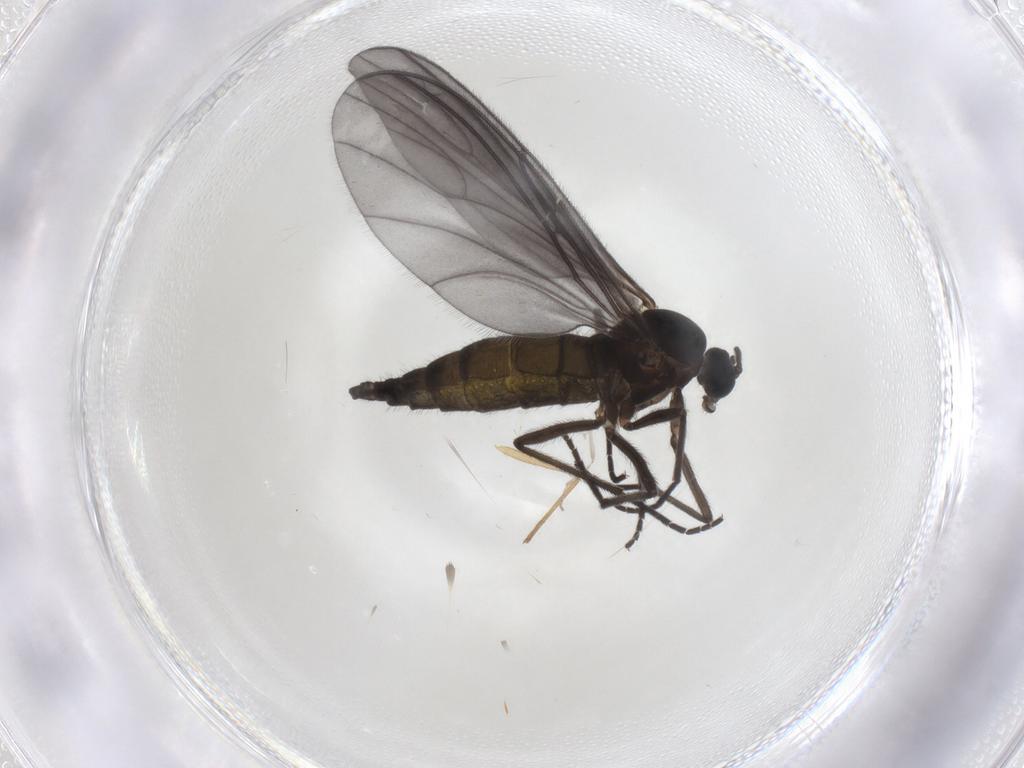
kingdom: Animalia
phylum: Arthropoda
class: Insecta
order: Diptera
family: Sciaridae
